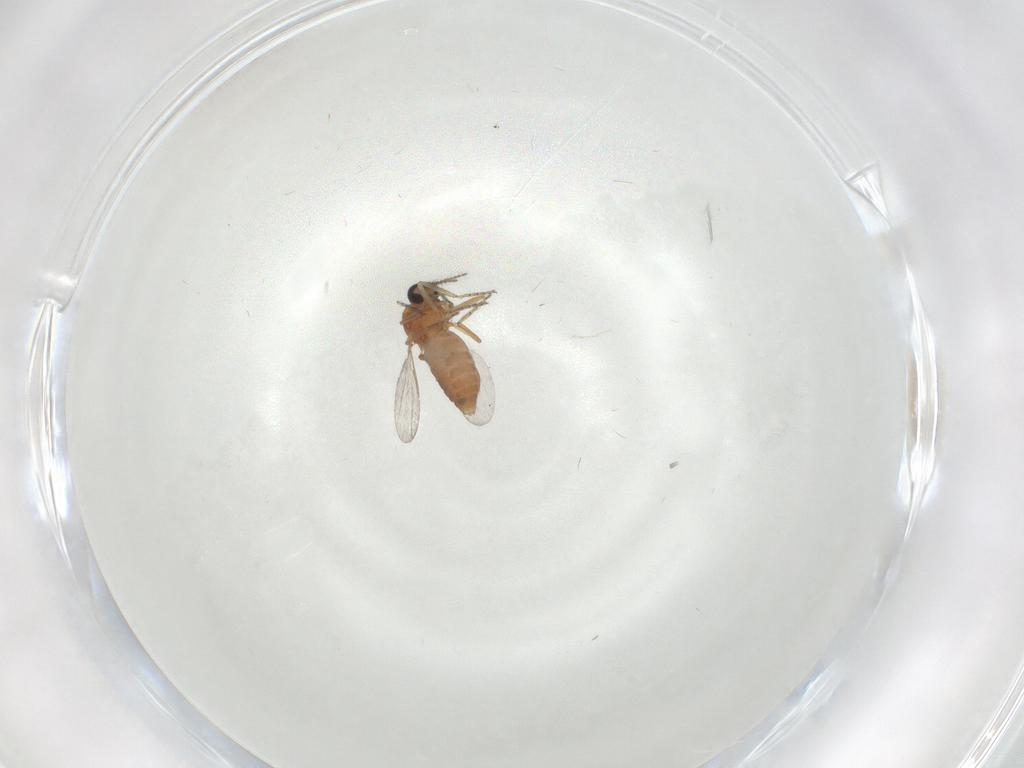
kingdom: Animalia
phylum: Arthropoda
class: Insecta
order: Diptera
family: Ceratopogonidae
